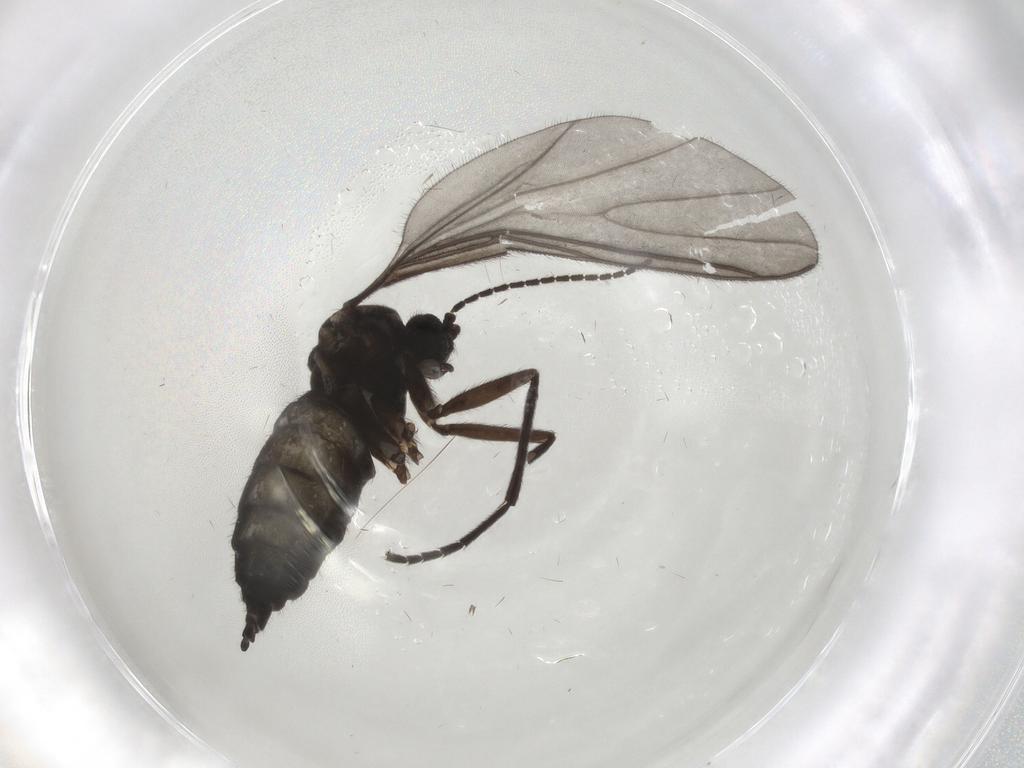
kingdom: Animalia
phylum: Arthropoda
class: Insecta
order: Diptera
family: Sciaridae
